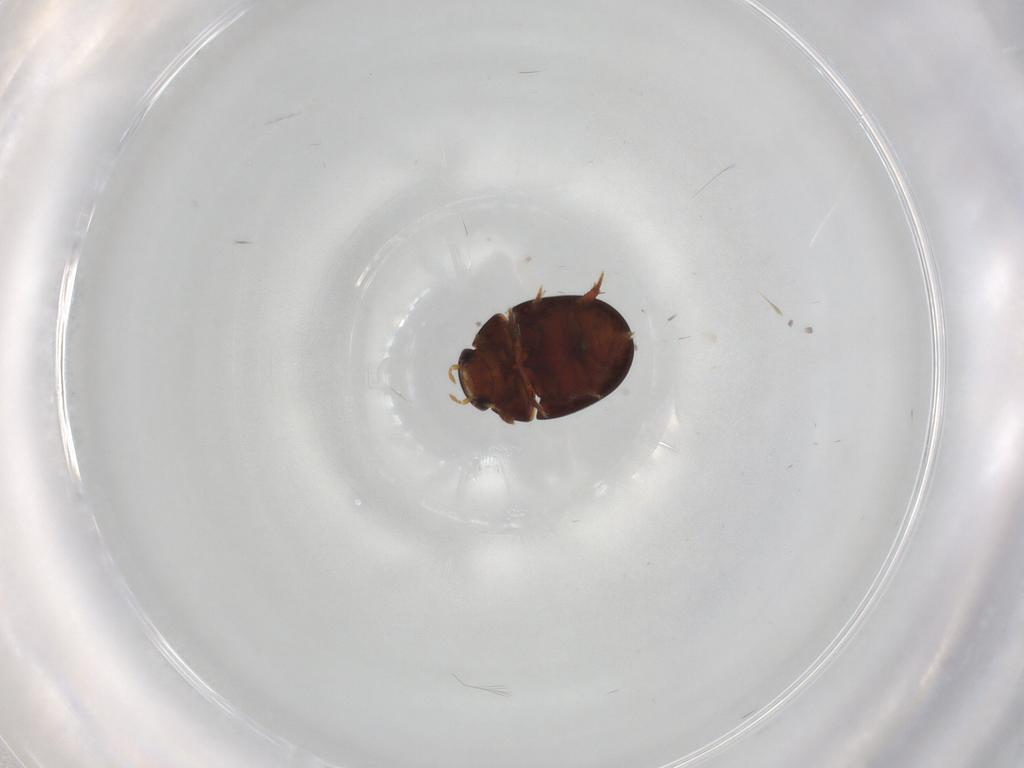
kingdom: Animalia
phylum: Arthropoda
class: Insecta
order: Coleoptera
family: Hydrophilidae
